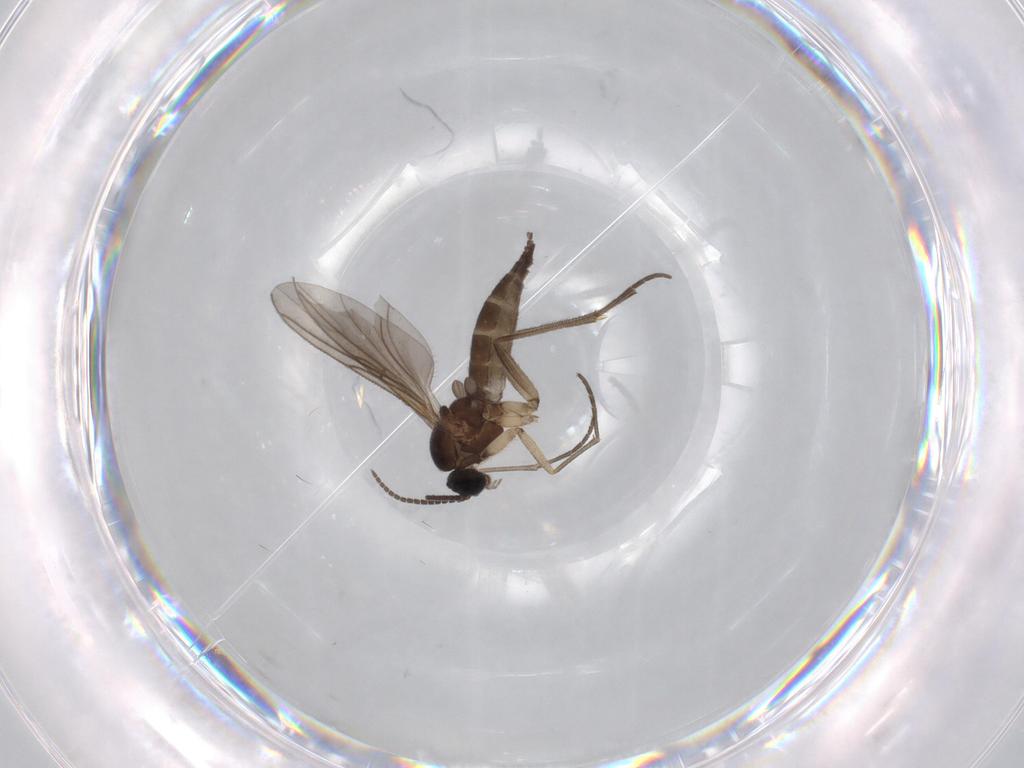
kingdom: Animalia
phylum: Arthropoda
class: Insecta
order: Diptera
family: Sciaridae
